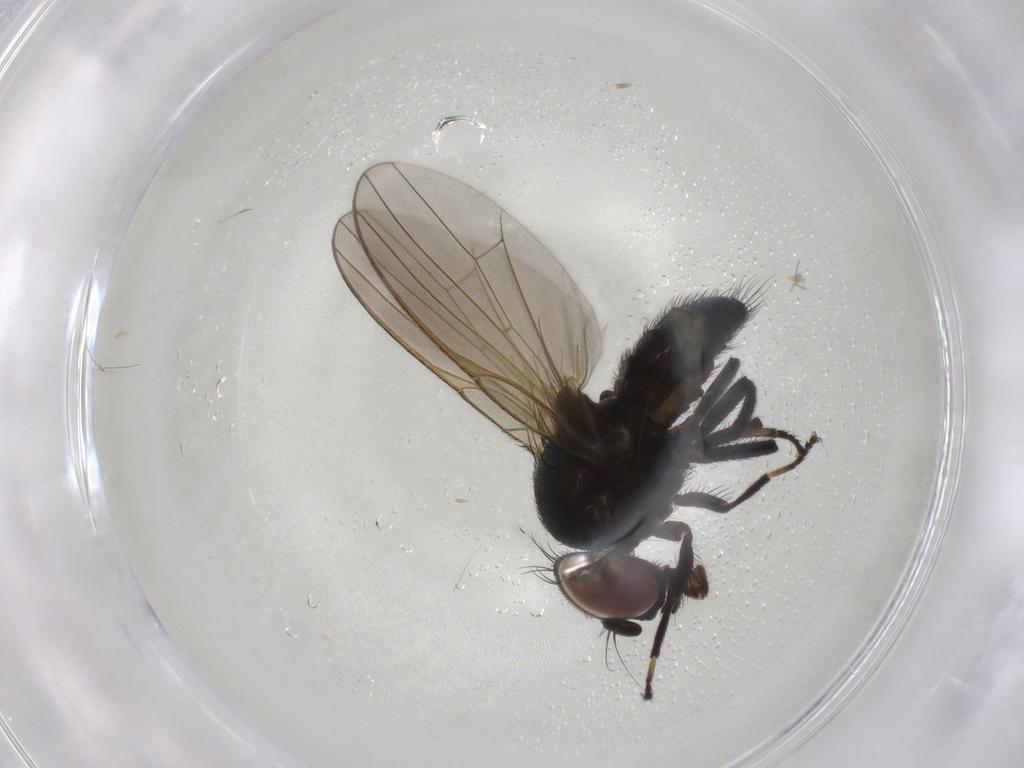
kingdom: Animalia
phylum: Arthropoda
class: Insecta
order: Diptera
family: Lonchaeidae
